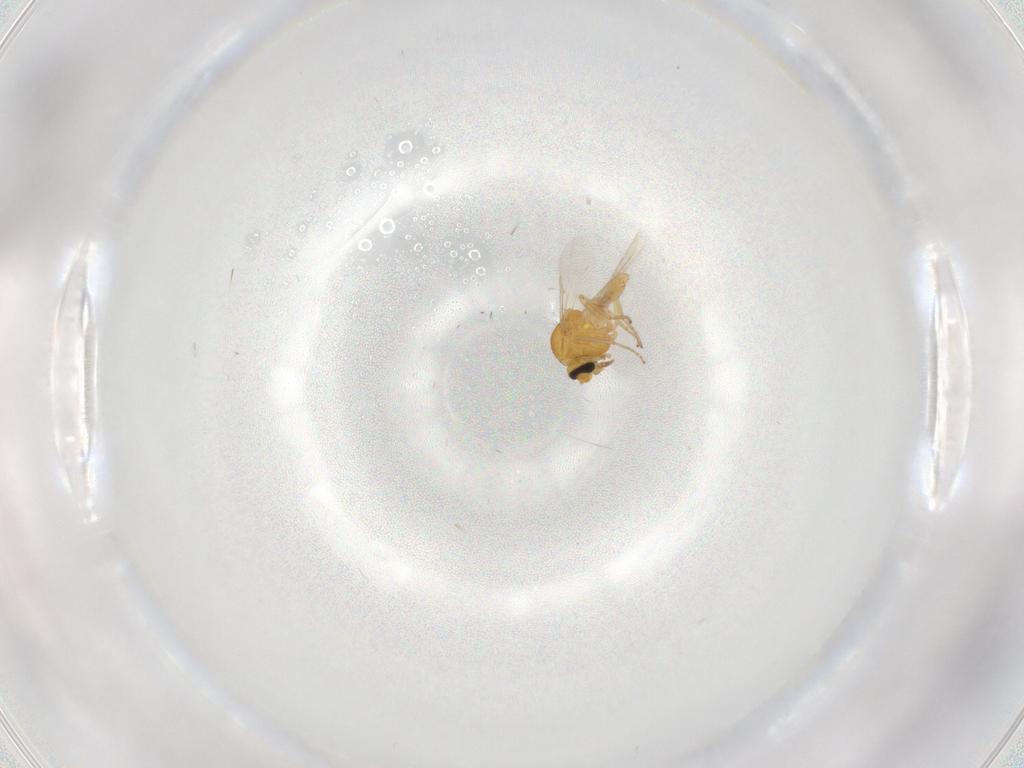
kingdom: Animalia
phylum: Arthropoda
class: Insecta
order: Diptera
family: Ceratopogonidae
